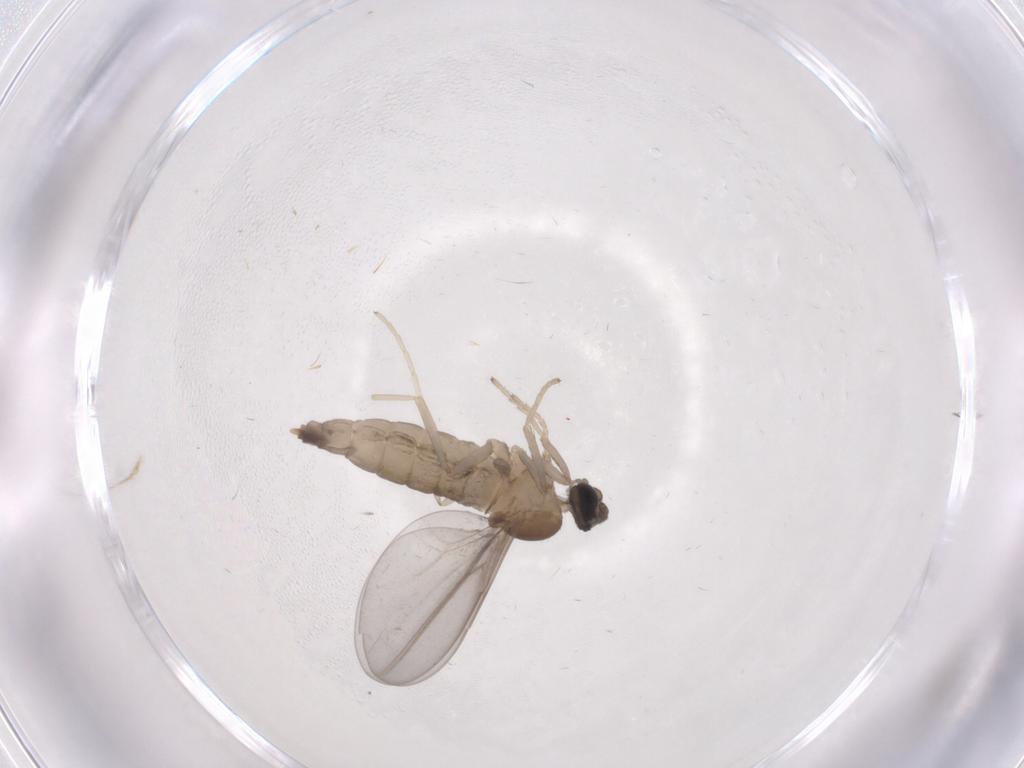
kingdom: Animalia
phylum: Arthropoda
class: Insecta
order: Diptera
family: Cecidomyiidae
